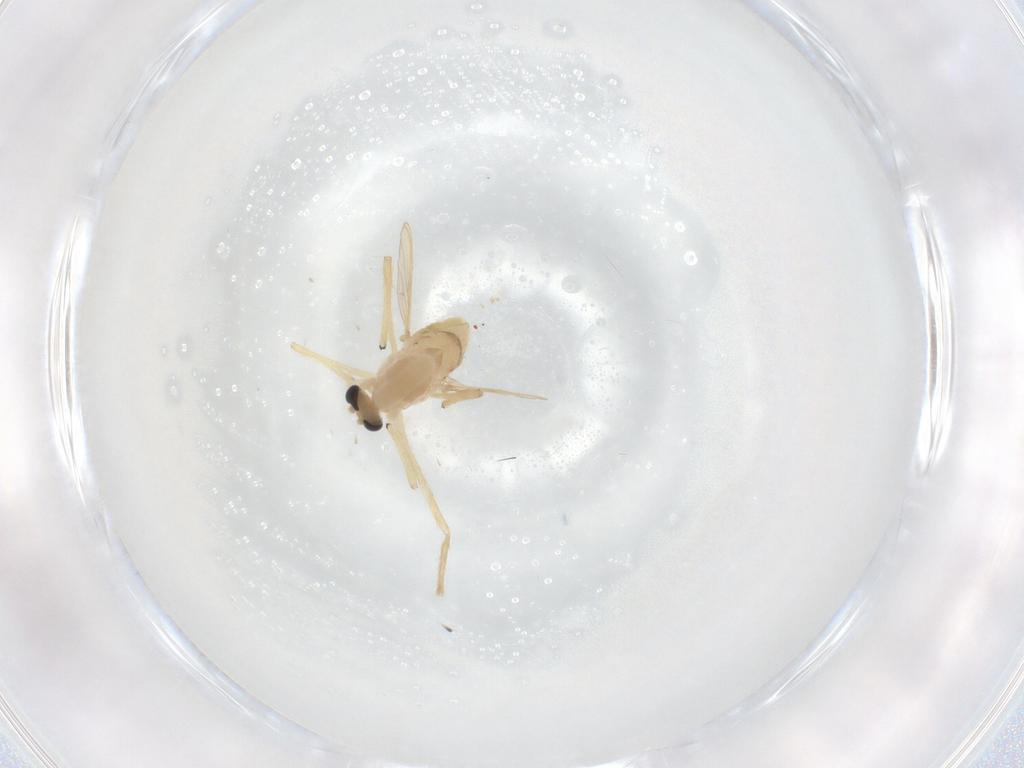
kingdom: Animalia
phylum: Arthropoda
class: Insecta
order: Diptera
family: Chironomidae
